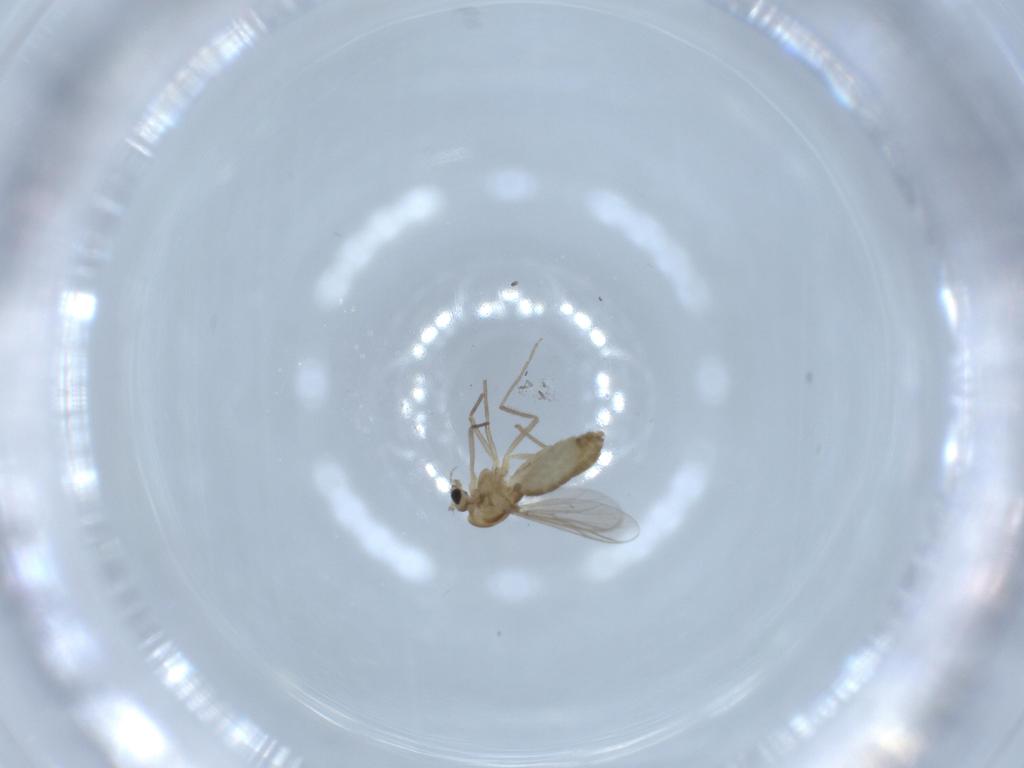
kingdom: Animalia
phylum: Arthropoda
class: Insecta
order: Diptera
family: Chironomidae
